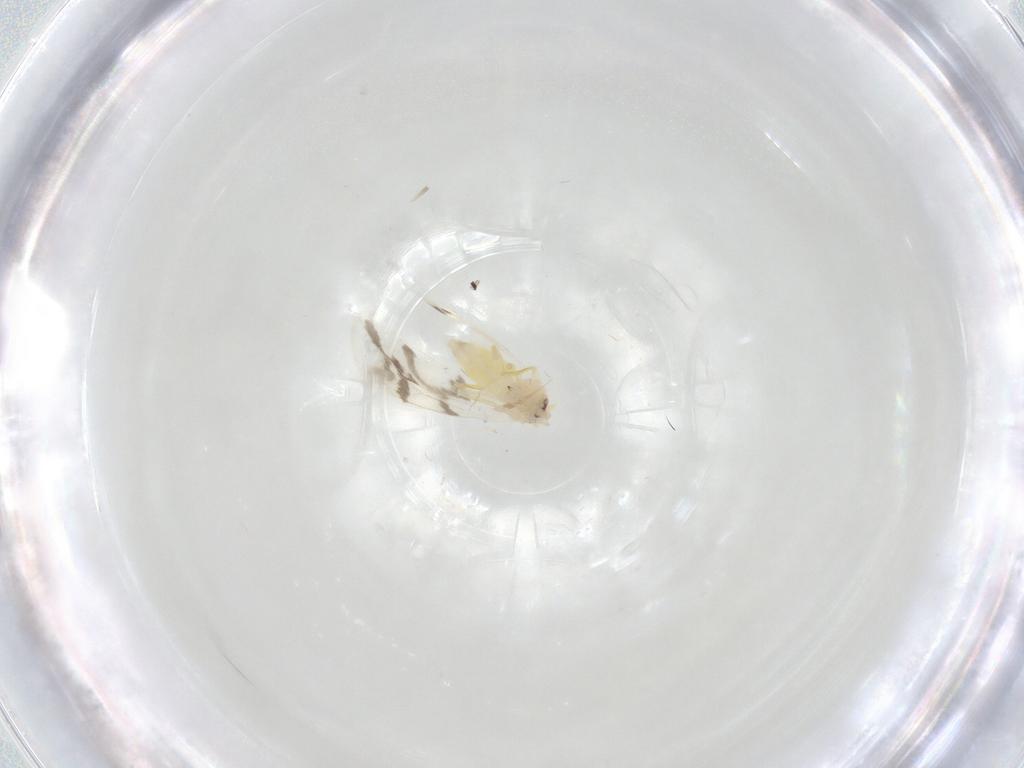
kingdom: Animalia
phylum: Arthropoda
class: Insecta
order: Diptera
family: Cecidomyiidae
